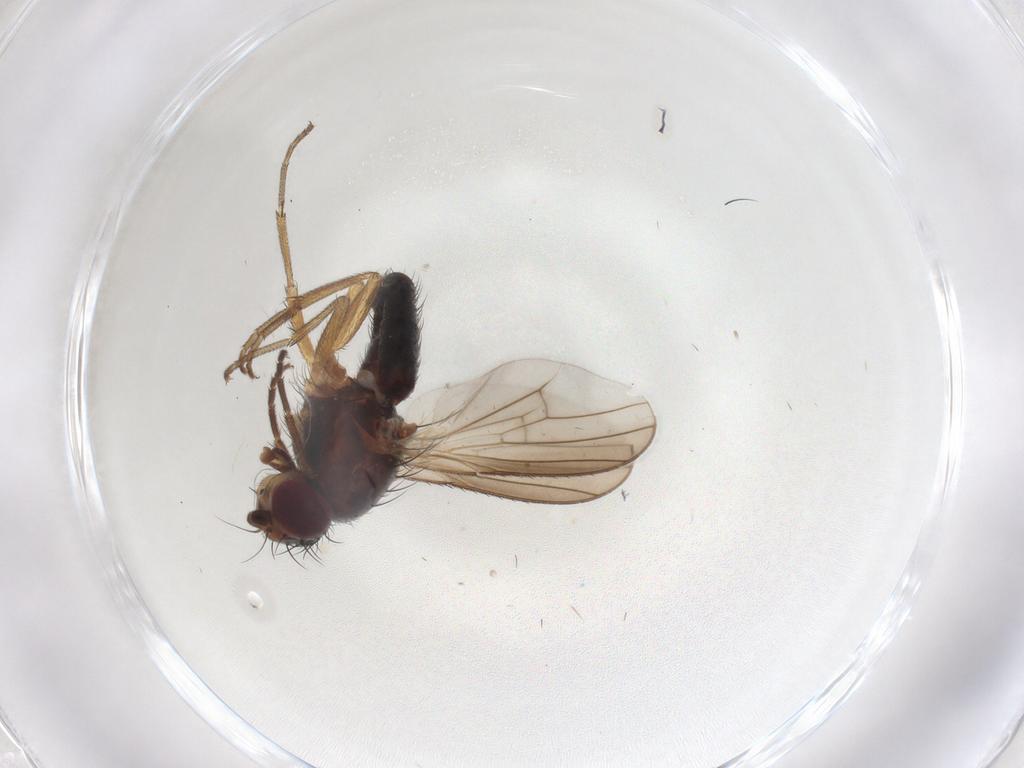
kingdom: Animalia
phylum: Arthropoda
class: Insecta
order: Diptera
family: Heleomyzidae
